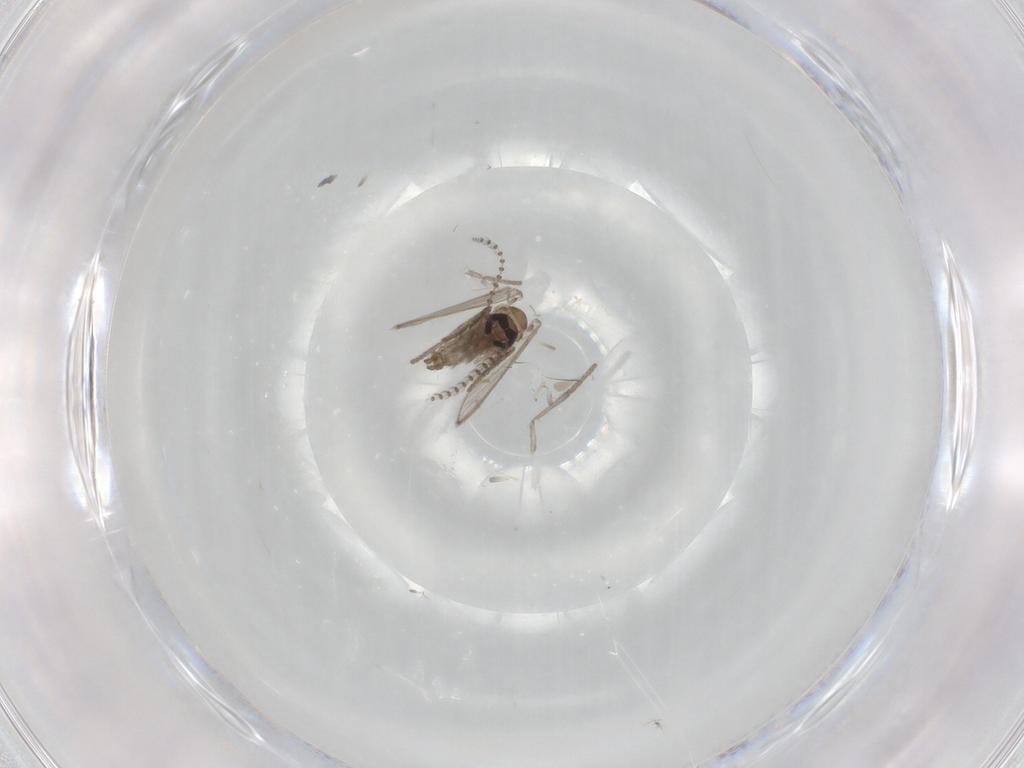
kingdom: Animalia
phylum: Arthropoda
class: Insecta
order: Diptera
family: Psychodidae
